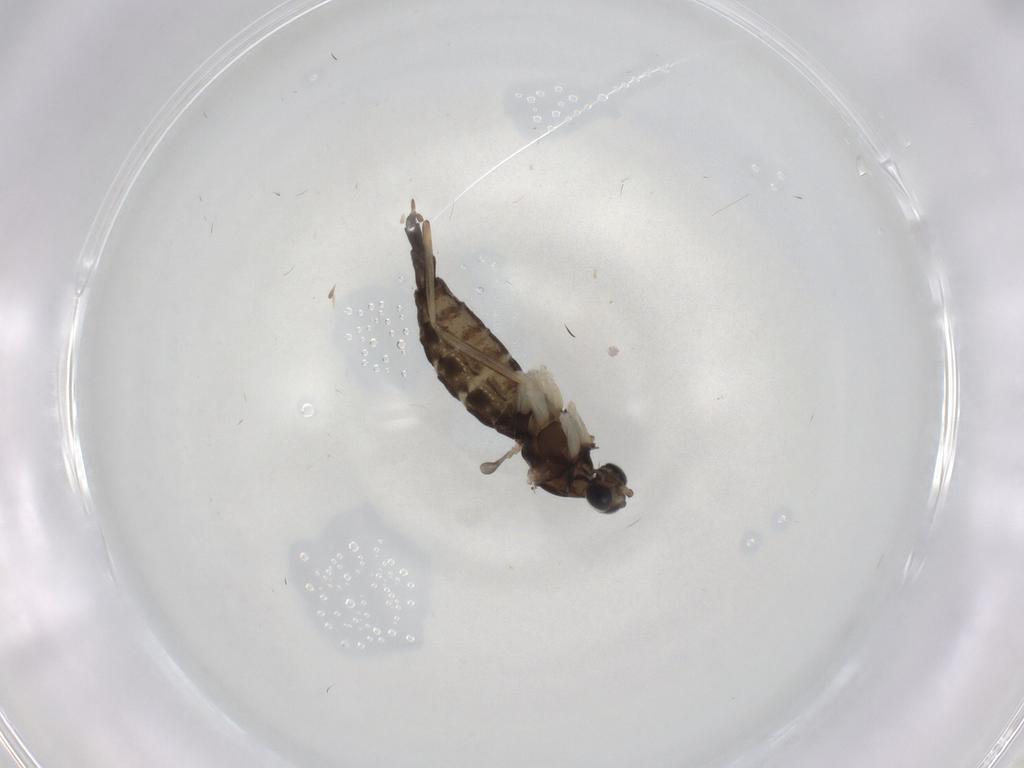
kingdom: Animalia
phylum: Arthropoda
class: Insecta
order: Diptera
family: Cecidomyiidae
